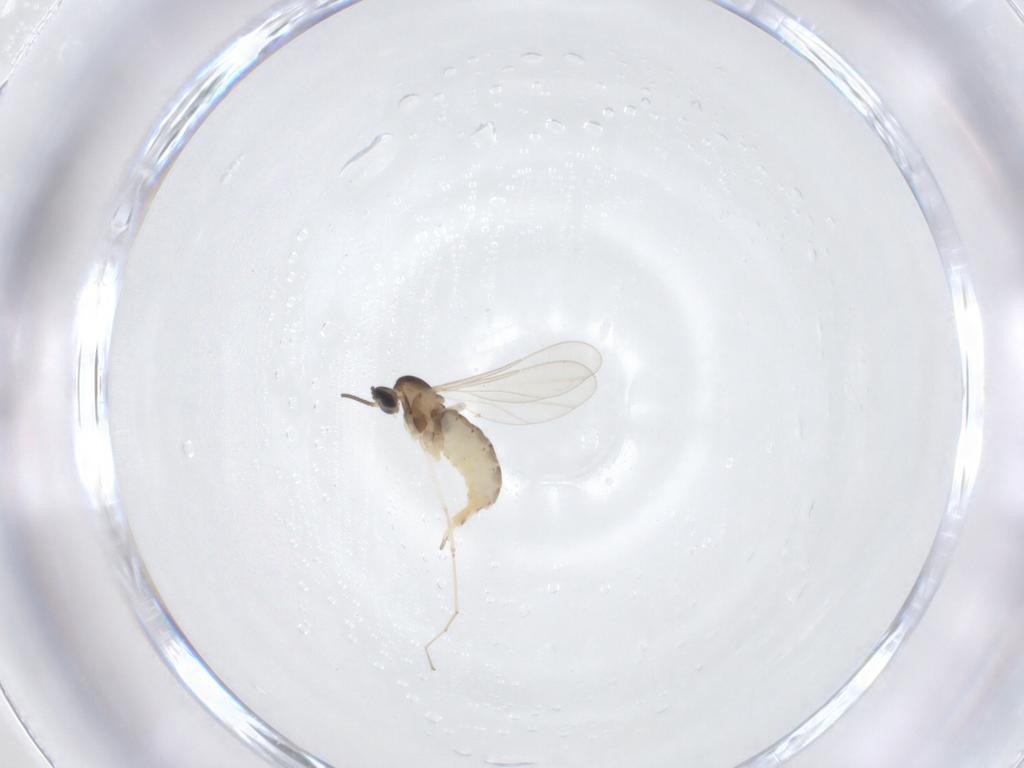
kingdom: Animalia
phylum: Arthropoda
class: Insecta
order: Diptera
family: Cecidomyiidae
